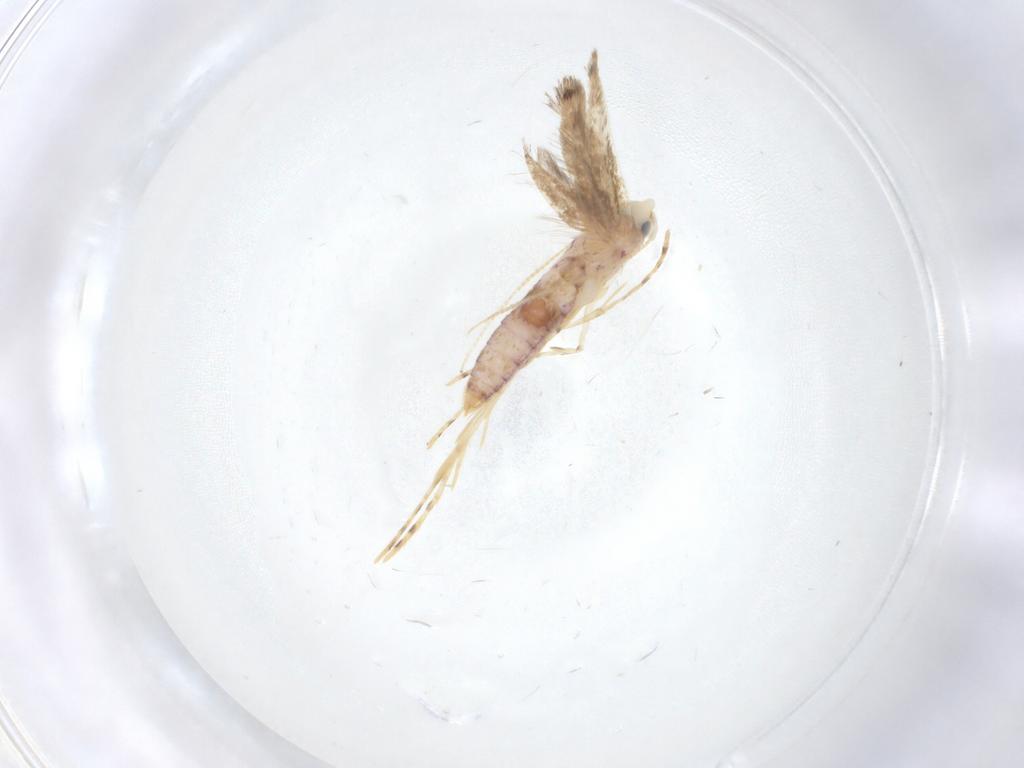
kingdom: Animalia
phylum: Arthropoda
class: Insecta
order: Lepidoptera
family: Lyonetiidae
